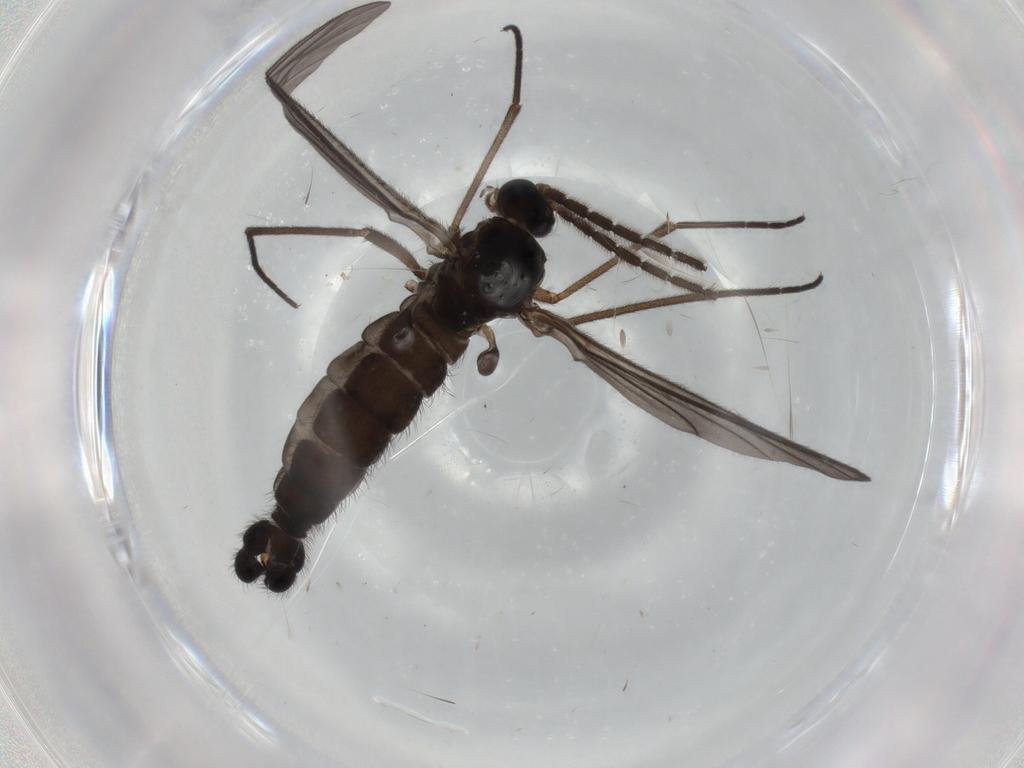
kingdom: Animalia
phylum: Arthropoda
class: Insecta
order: Diptera
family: Sciaridae
